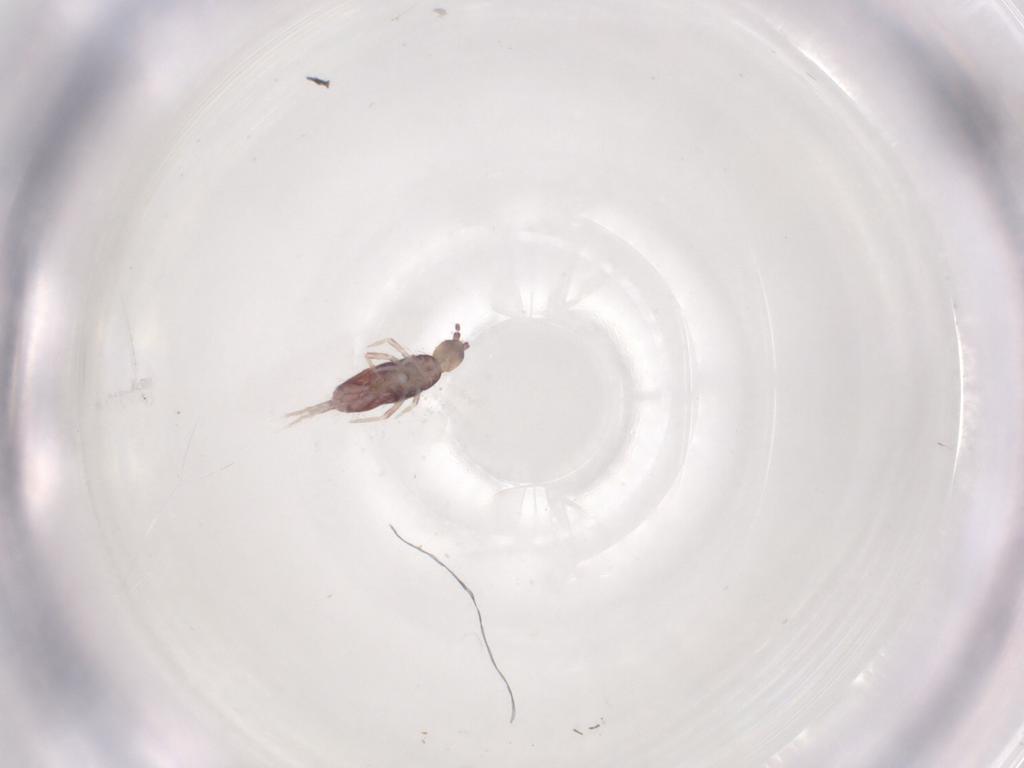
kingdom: Animalia
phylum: Arthropoda
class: Collembola
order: Entomobryomorpha
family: Entomobryidae
